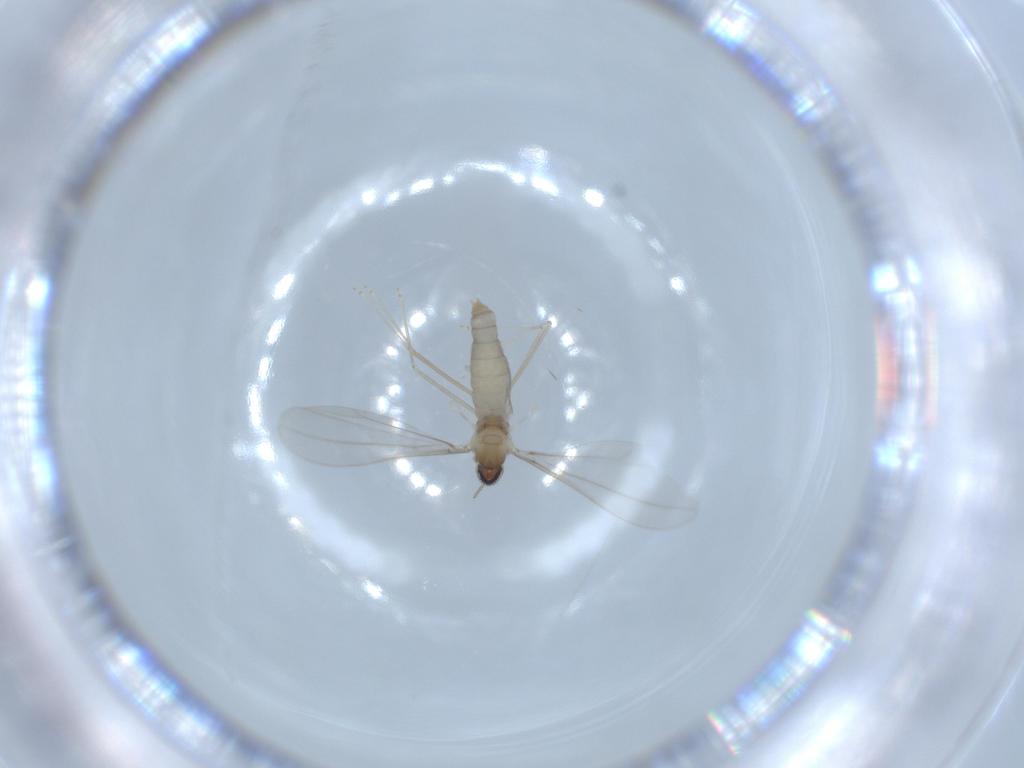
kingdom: Animalia
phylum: Arthropoda
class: Insecta
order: Diptera
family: Cecidomyiidae
